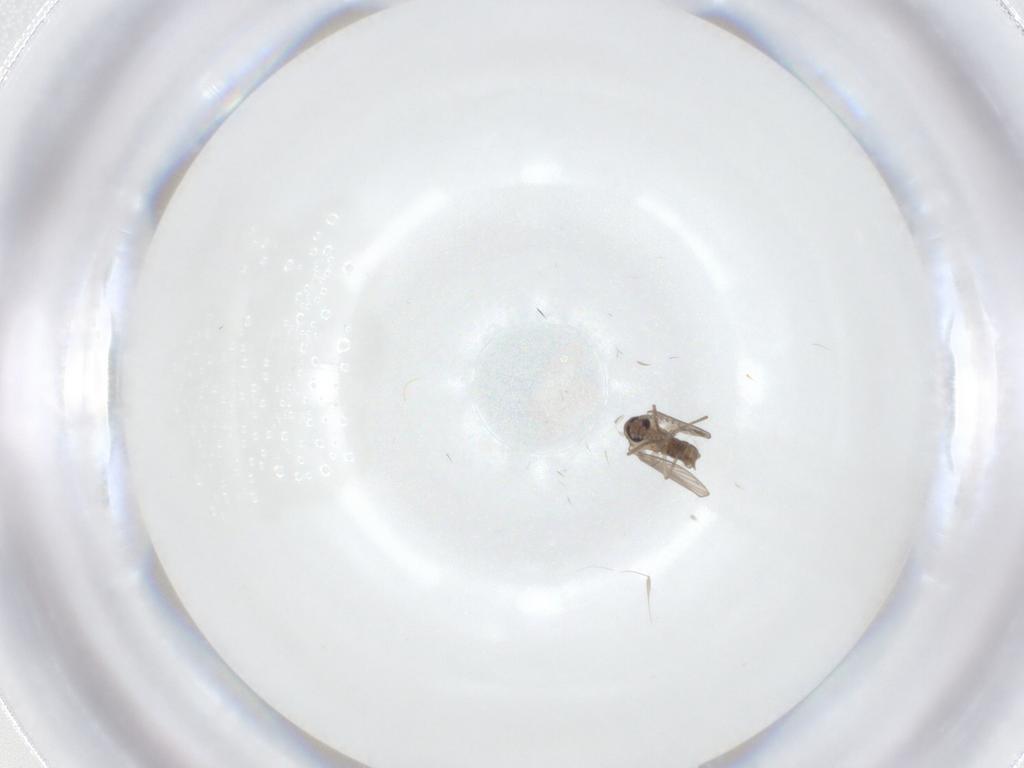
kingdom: Animalia
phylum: Arthropoda
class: Insecta
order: Diptera
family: Psychodidae
